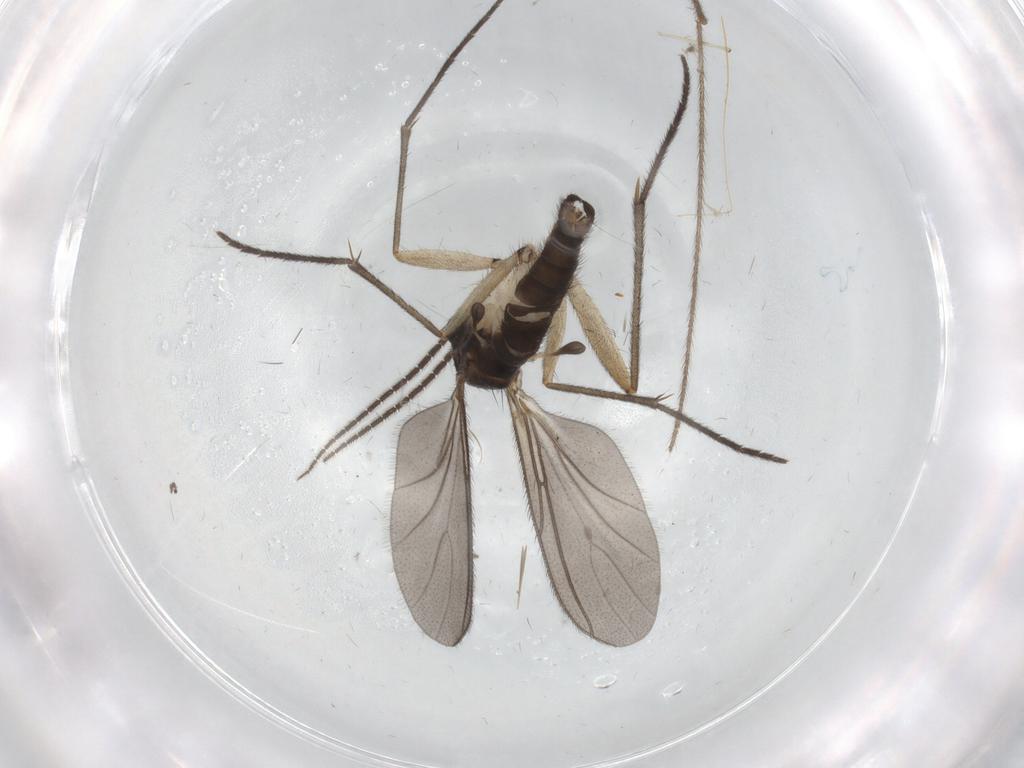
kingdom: Animalia
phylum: Arthropoda
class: Insecta
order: Diptera
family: Sciaridae
